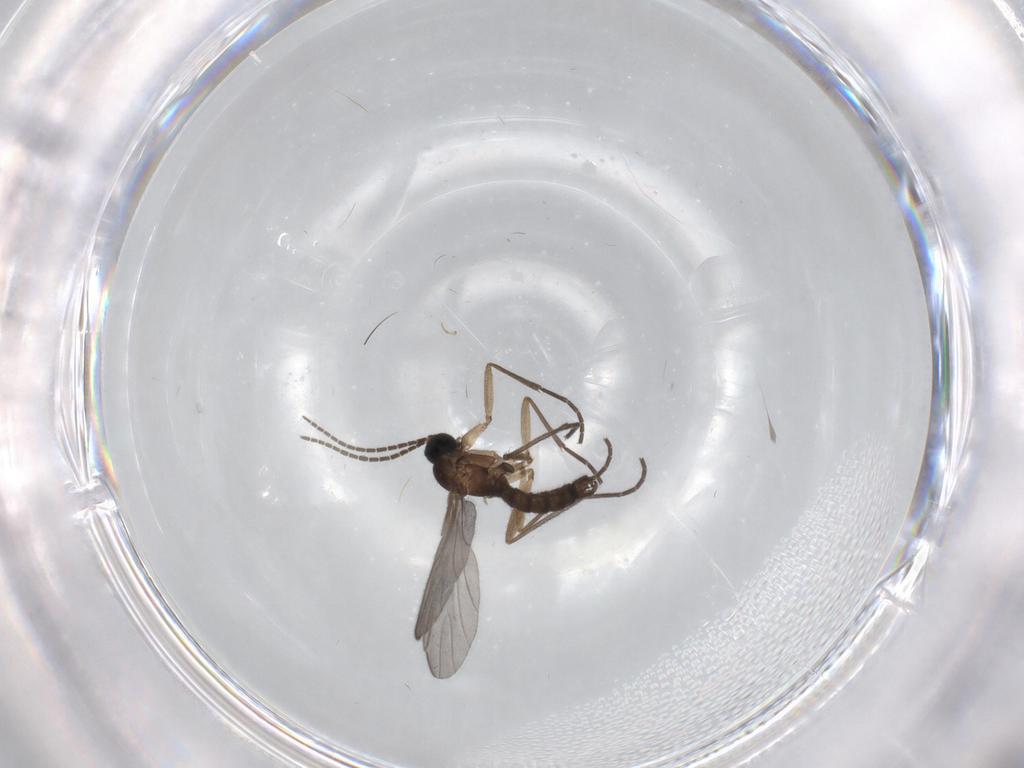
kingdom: Animalia
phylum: Arthropoda
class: Insecta
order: Diptera
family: Sciaridae
